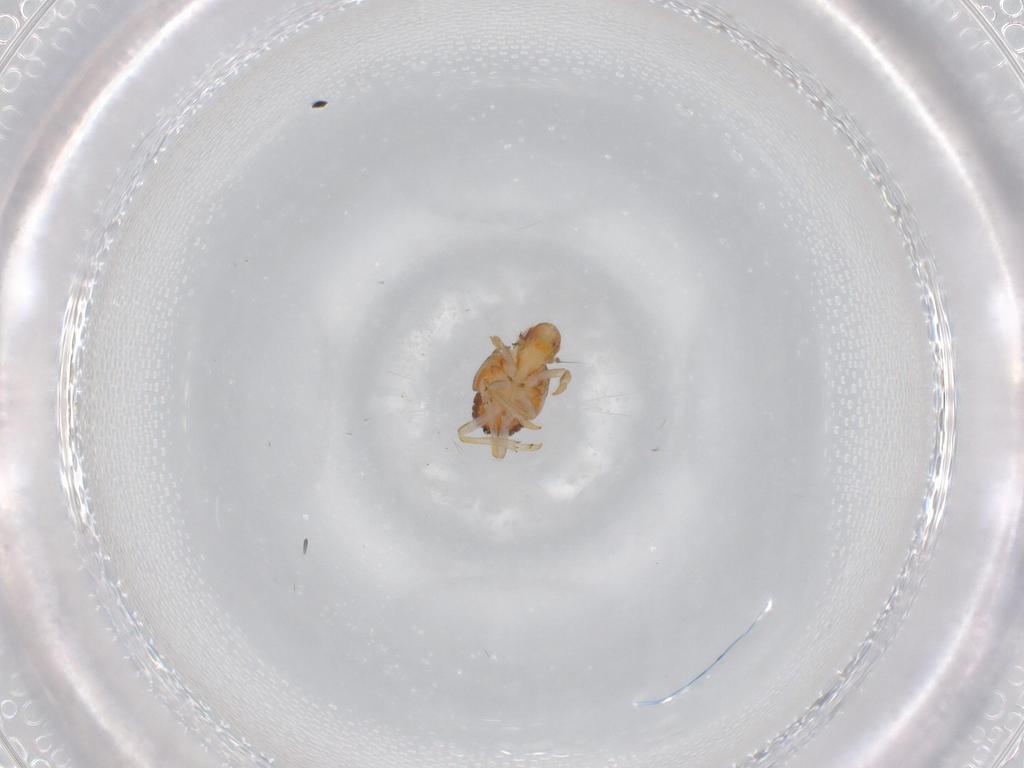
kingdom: Animalia
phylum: Arthropoda
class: Insecta
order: Hemiptera
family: Issidae
